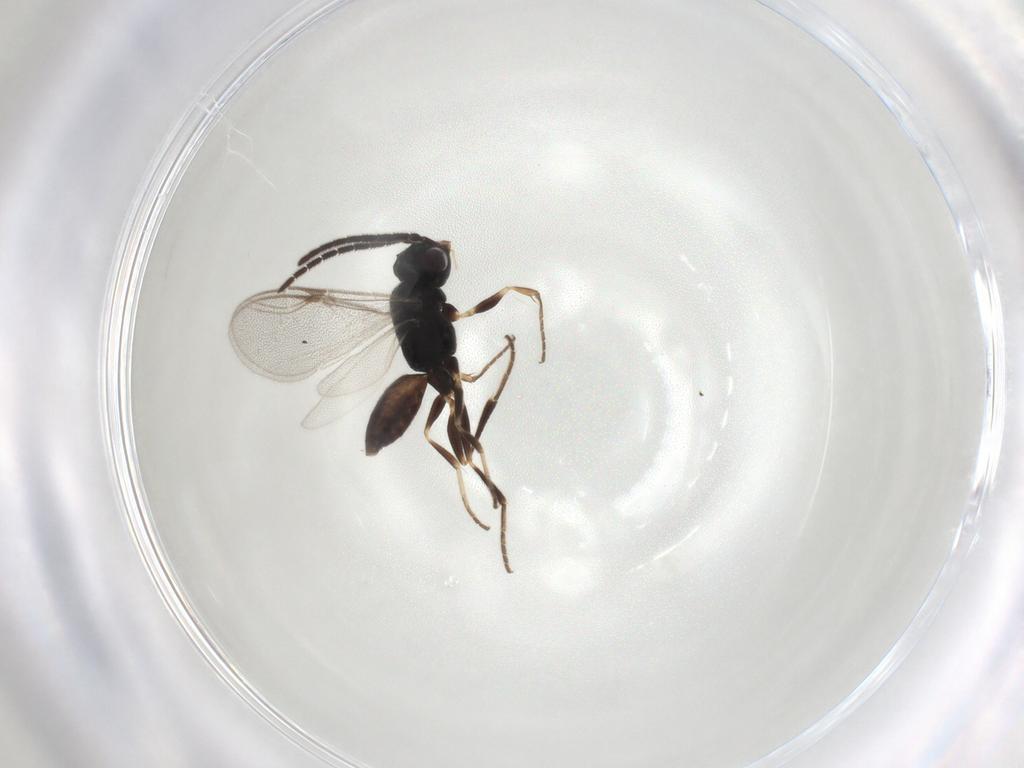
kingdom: Animalia
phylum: Arthropoda
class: Insecta
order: Hymenoptera
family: Dryinidae
